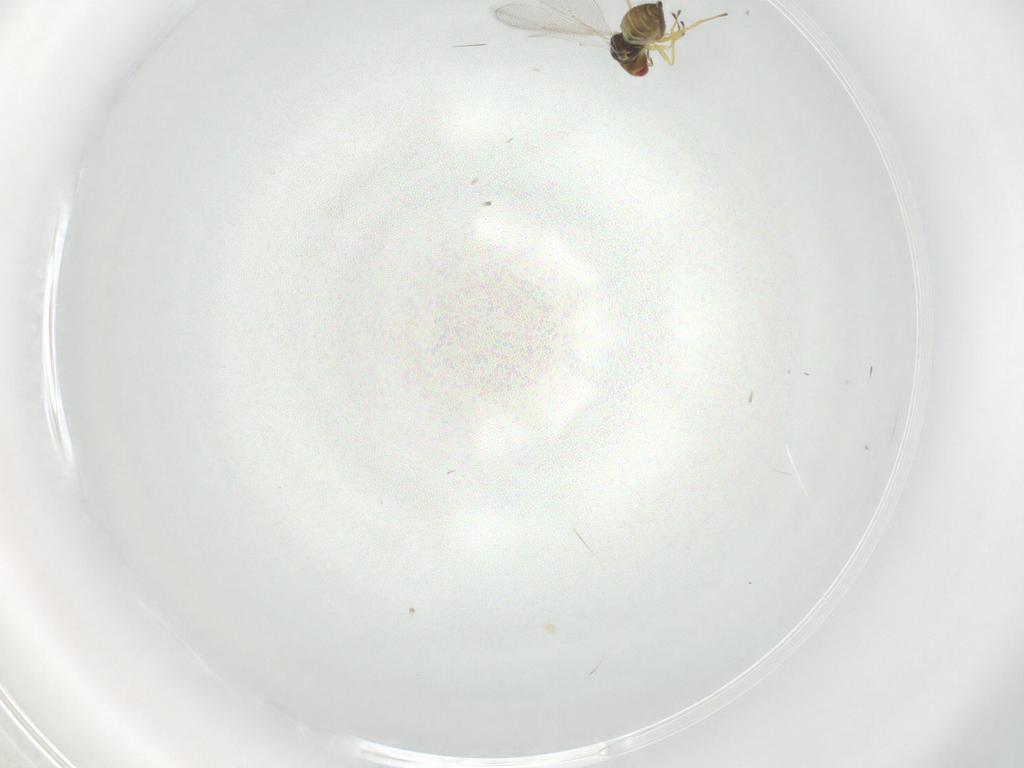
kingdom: Animalia
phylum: Arthropoda
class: Insecta
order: Hymenoptera
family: Eulophidae
